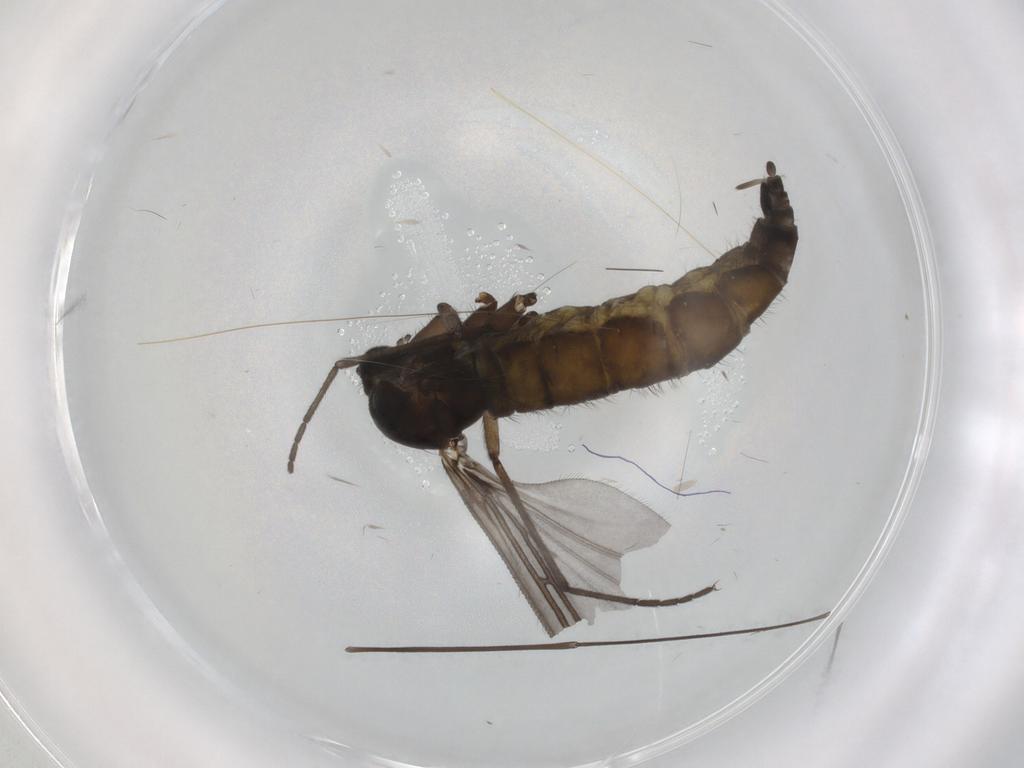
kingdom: Animalia
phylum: Arthropoda
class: Insecta
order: Diptera
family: Sciaridae
